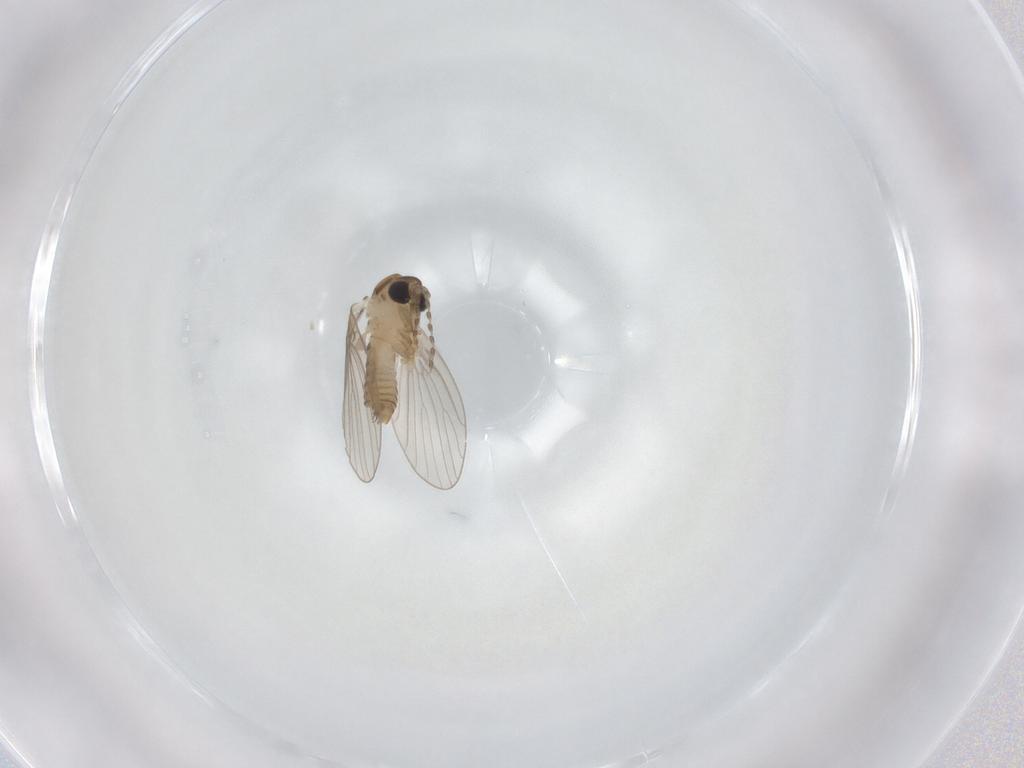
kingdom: Animalia
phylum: Arthropoda
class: Insecta
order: Diptera
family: Psychodidae
